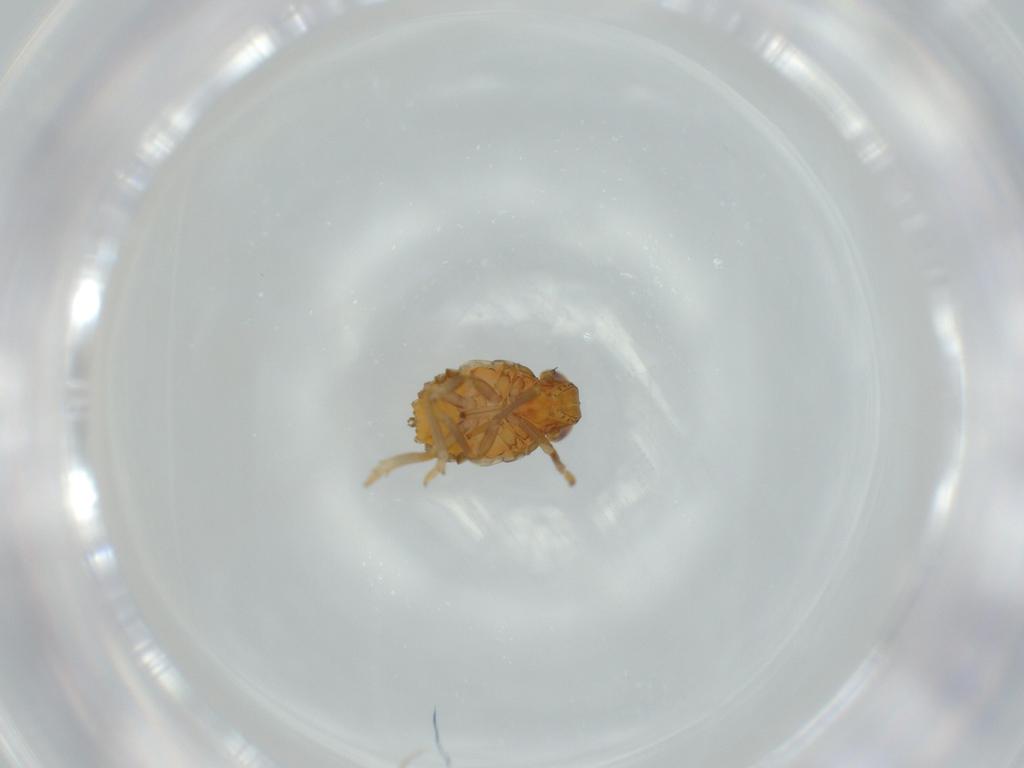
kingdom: Animalia
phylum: Arthropoda
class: Insecta
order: Hemiptera
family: Issidae
